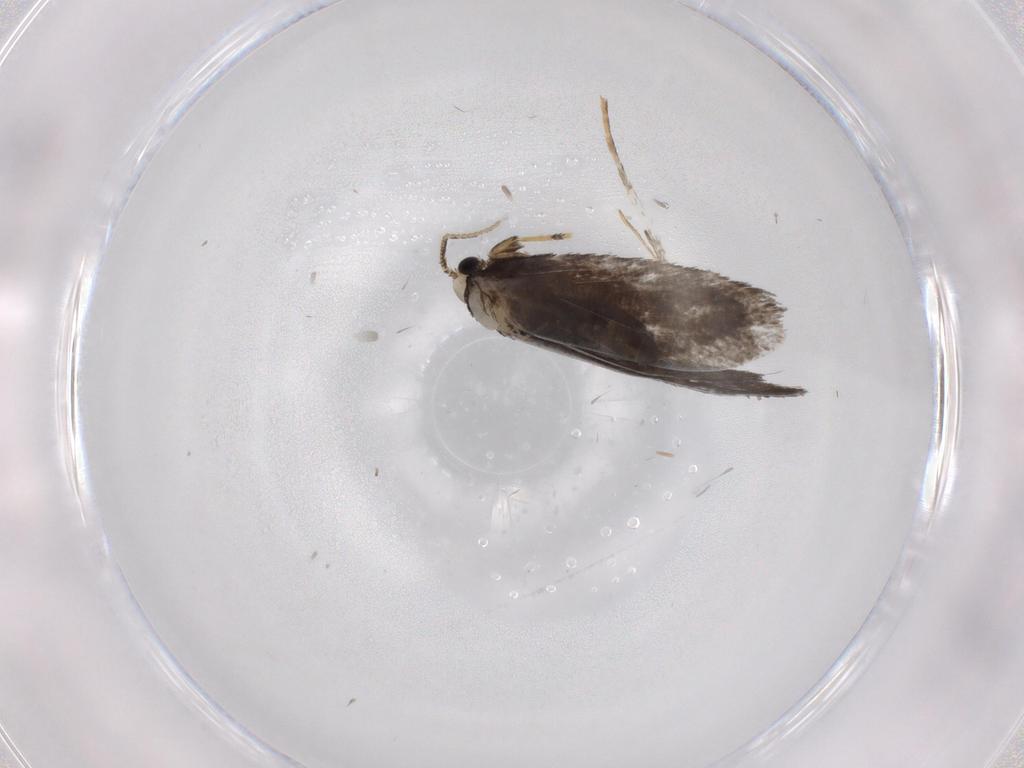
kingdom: Animalia
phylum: Arthropoda
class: Insecta
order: Lepidoptera
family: Psychidae
